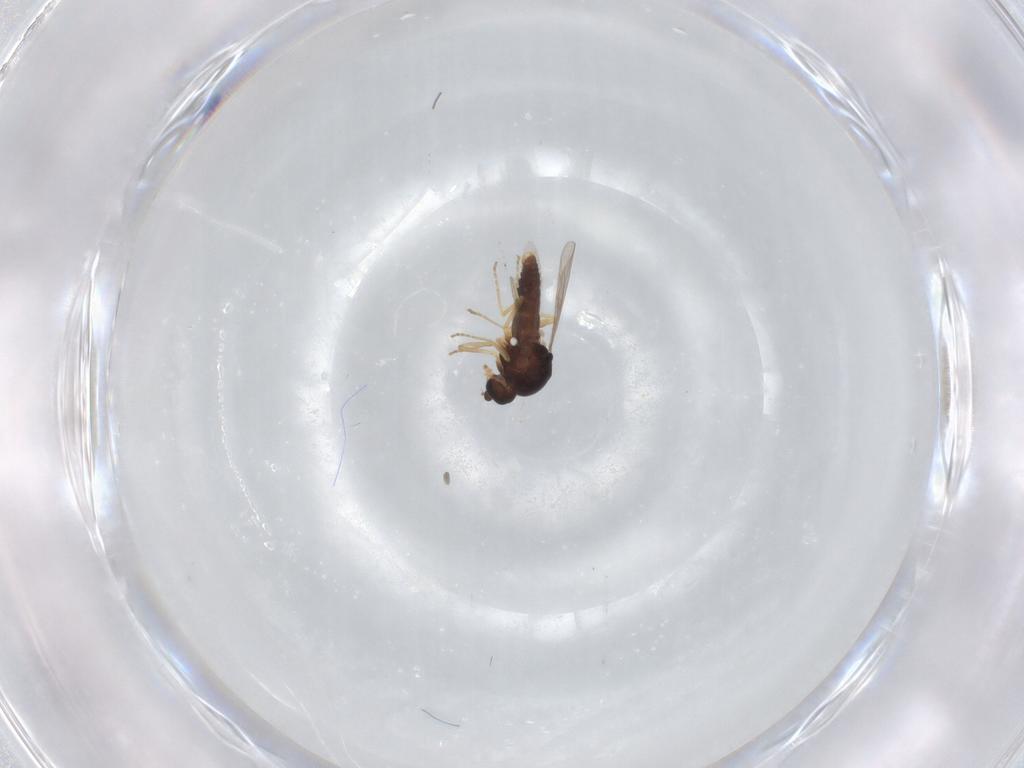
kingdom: Animalia
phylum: Arthropoda
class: Insecta
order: Diptera
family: Ceratopogonidae
